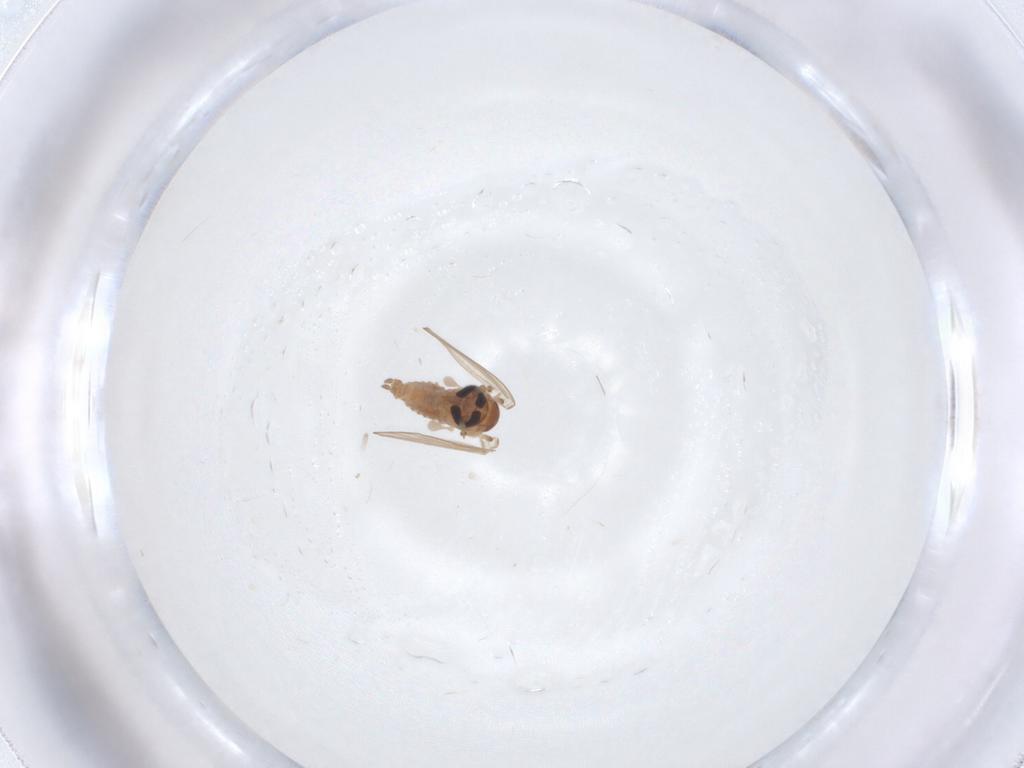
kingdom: Animalia
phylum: Arthropoda
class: Insecta
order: Diptera
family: Psychodidae
